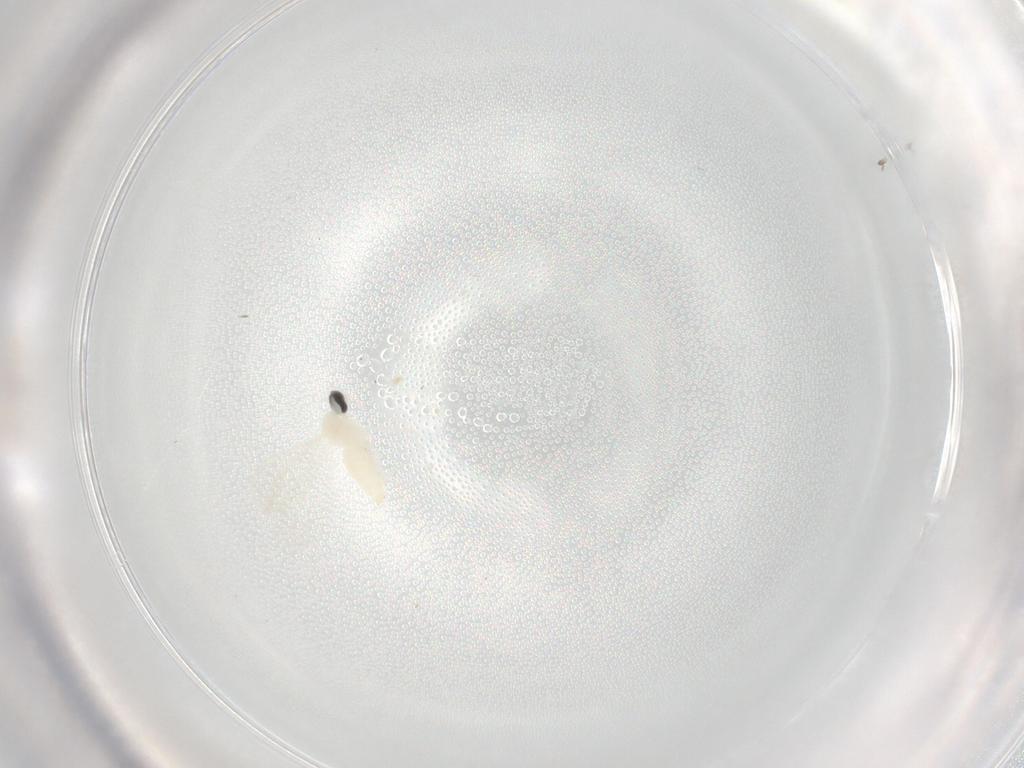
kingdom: Animalia
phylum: Arthropoda
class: Insecta
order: Diptera
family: Cecidomyiidae
